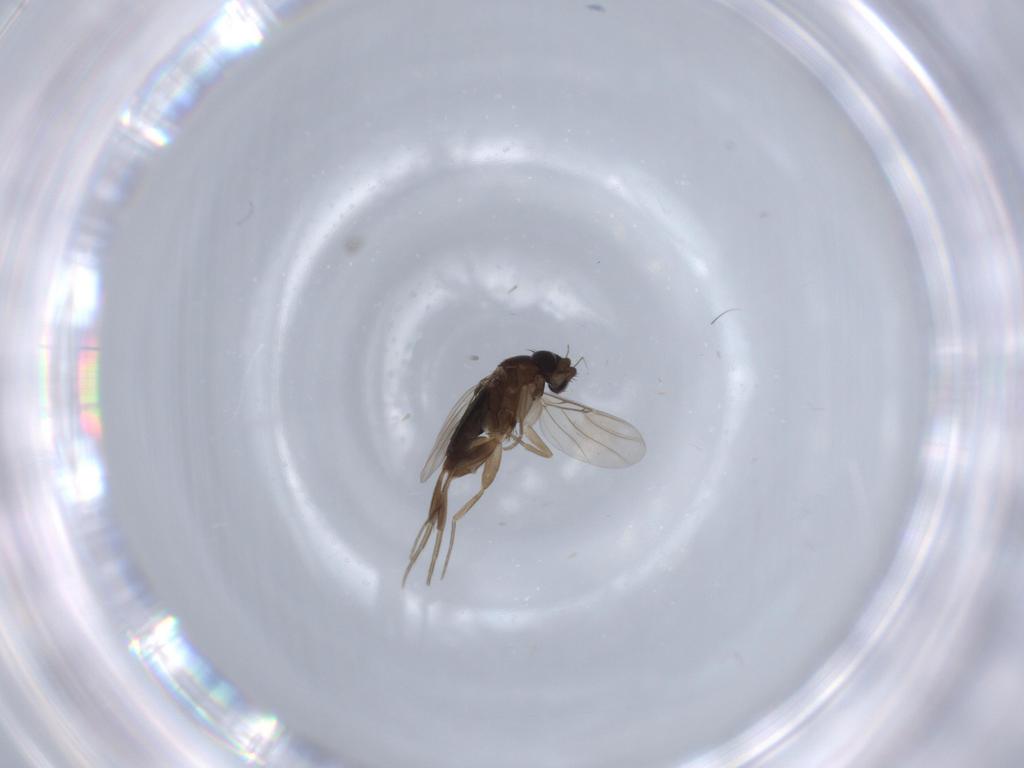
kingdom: Animalia
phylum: Arthropoda
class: Insecta
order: Diptera
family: Phoridae
